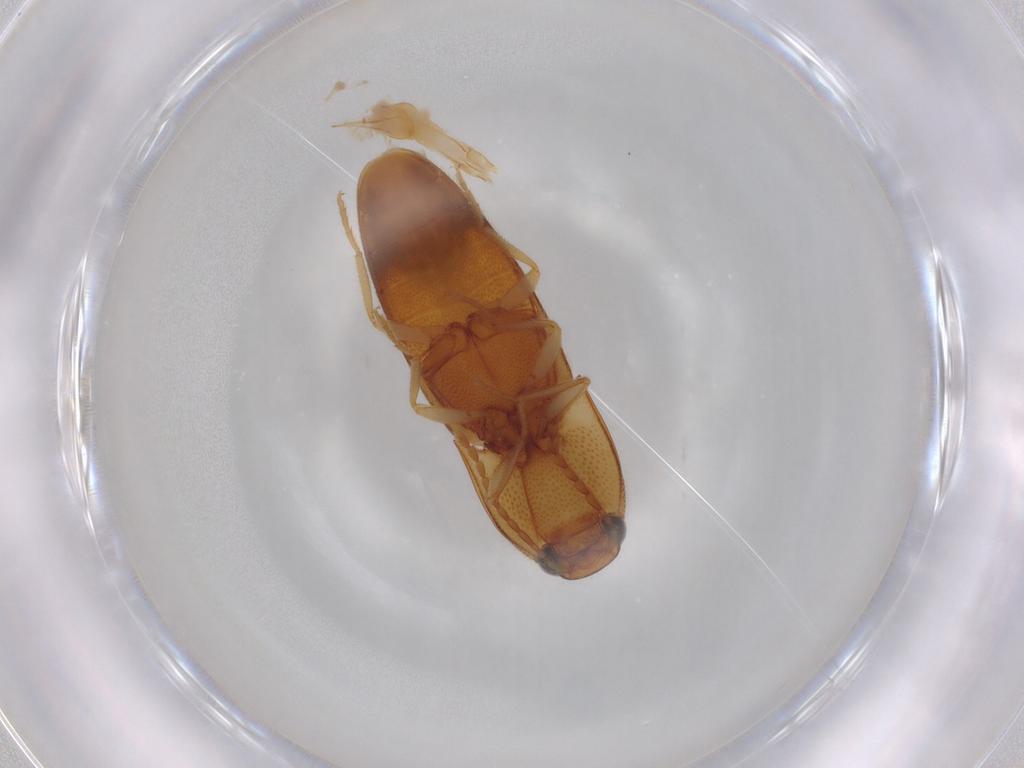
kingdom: Animalia
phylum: Arthropoda
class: Insecta
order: Coleoptera
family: Elateridae
